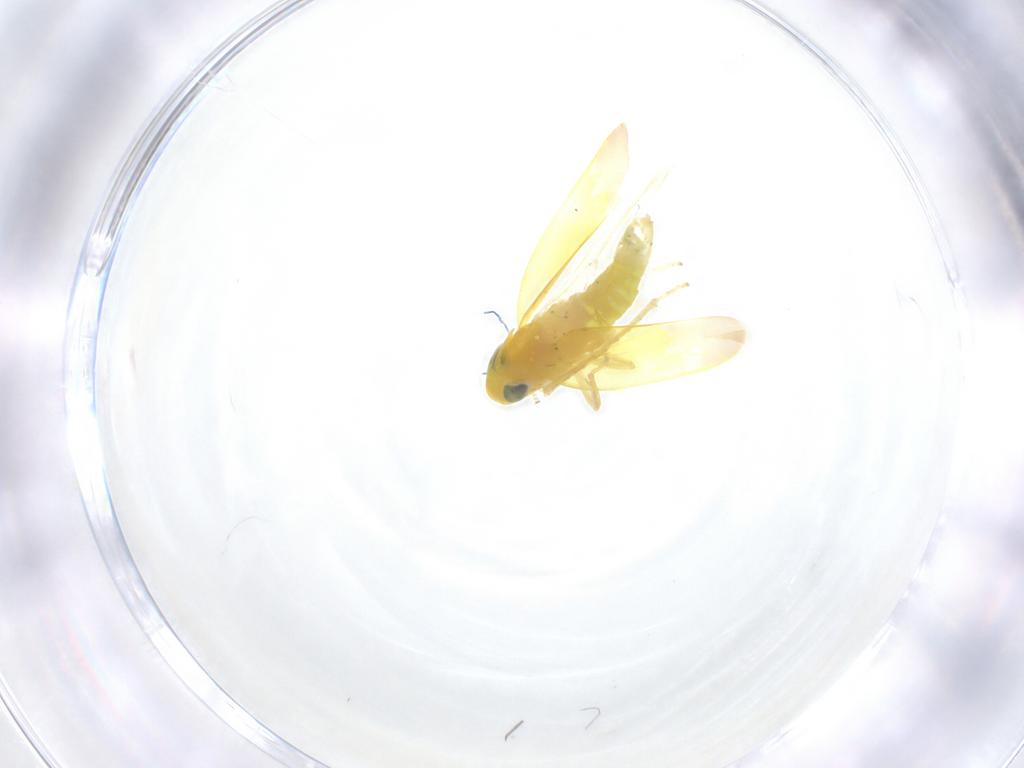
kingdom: Animalia
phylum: Arthropoda
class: Insecta
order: Hemiptera
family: Cicadellidae
